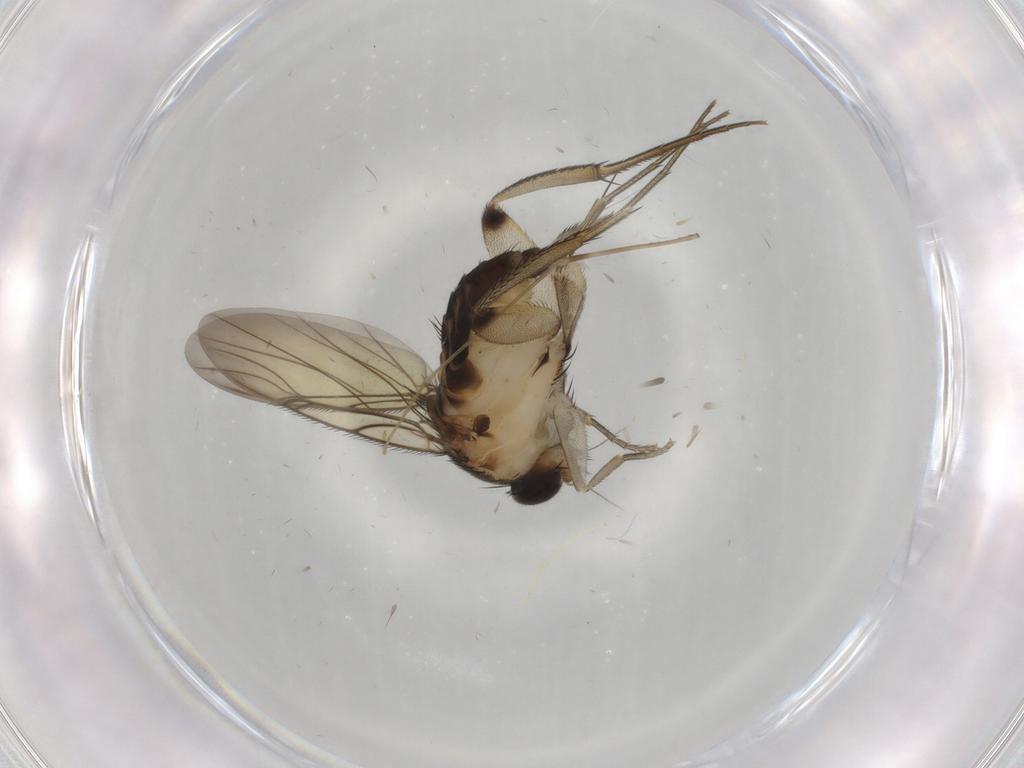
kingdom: Animalia
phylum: Arthropoda
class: Insecta
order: Diptera
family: Phoridae
